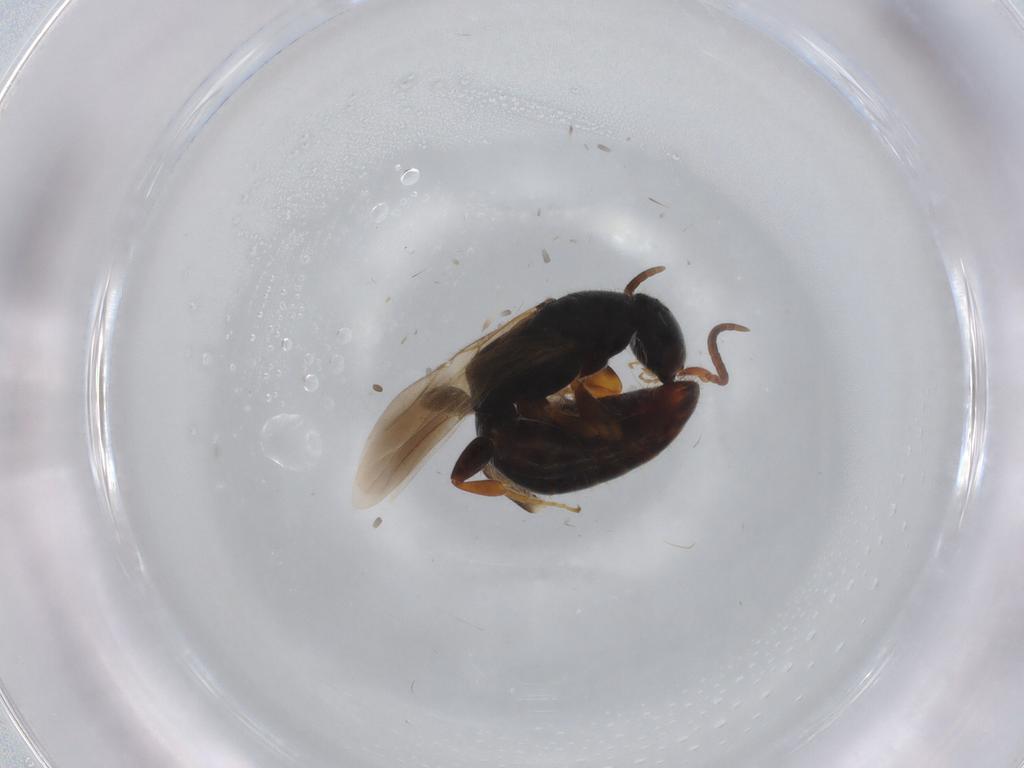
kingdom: Animalia
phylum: Arthropoda
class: Insecta
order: Hymenoptera
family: Bethylidae
